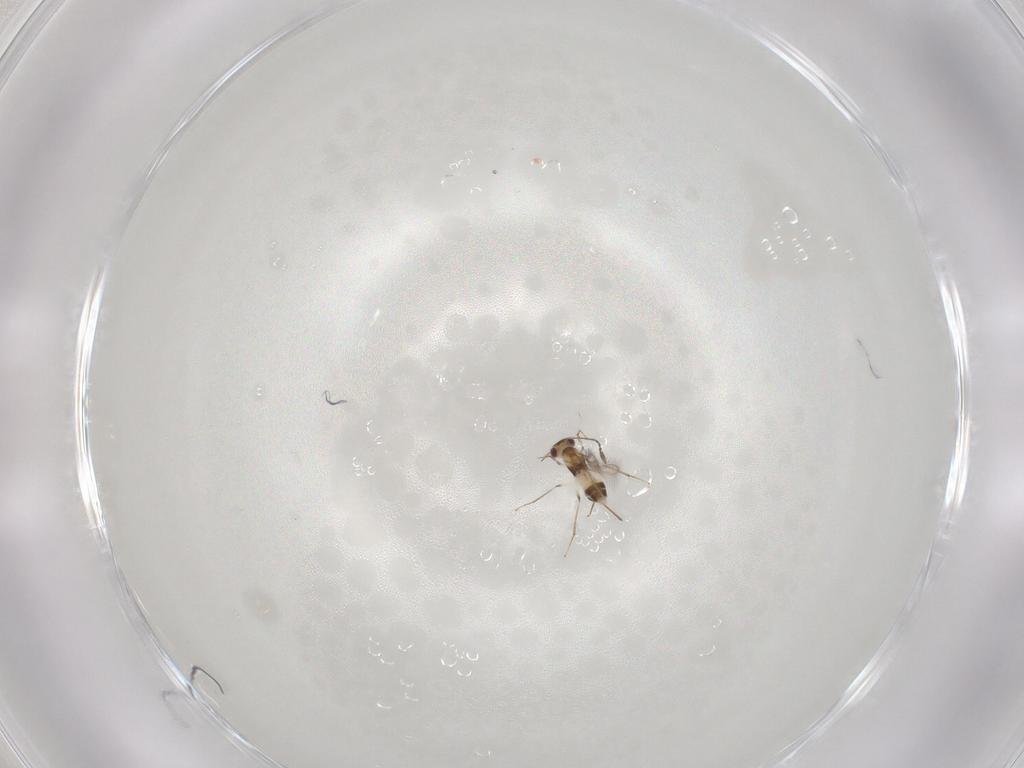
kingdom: Animalia
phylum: Arthropoda
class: Insecta
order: Hymenoptera
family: Mymaridae
